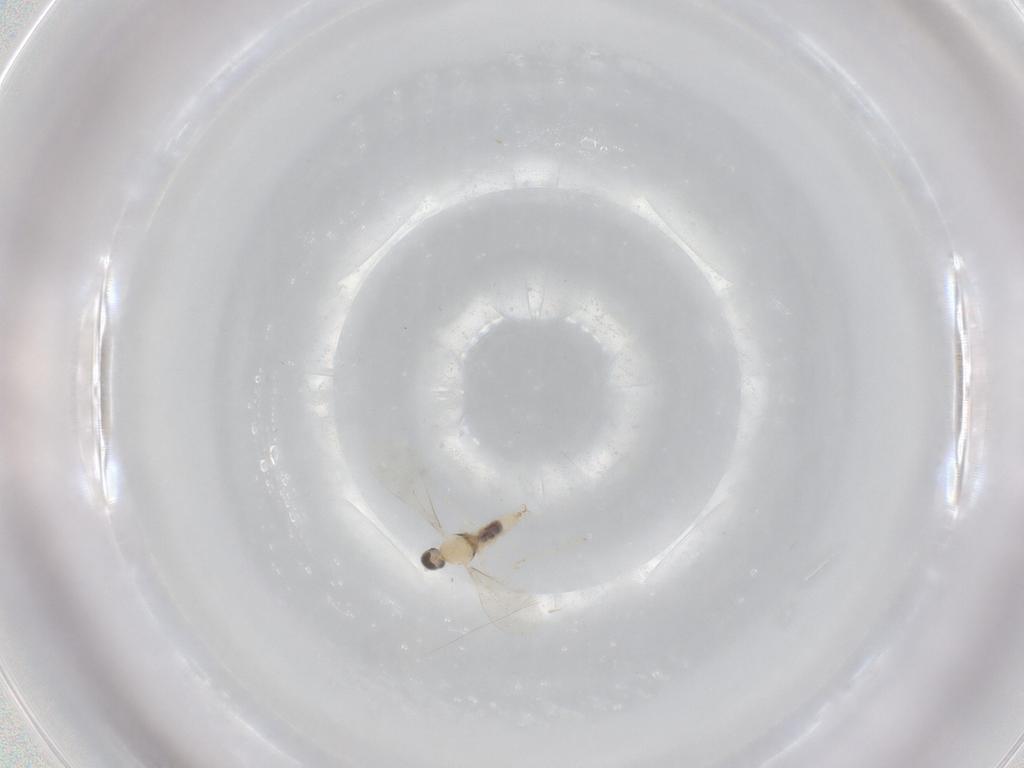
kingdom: Animalia
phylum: Arthropoda
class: Insecta
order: Diptera
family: Cecidomyiidae
